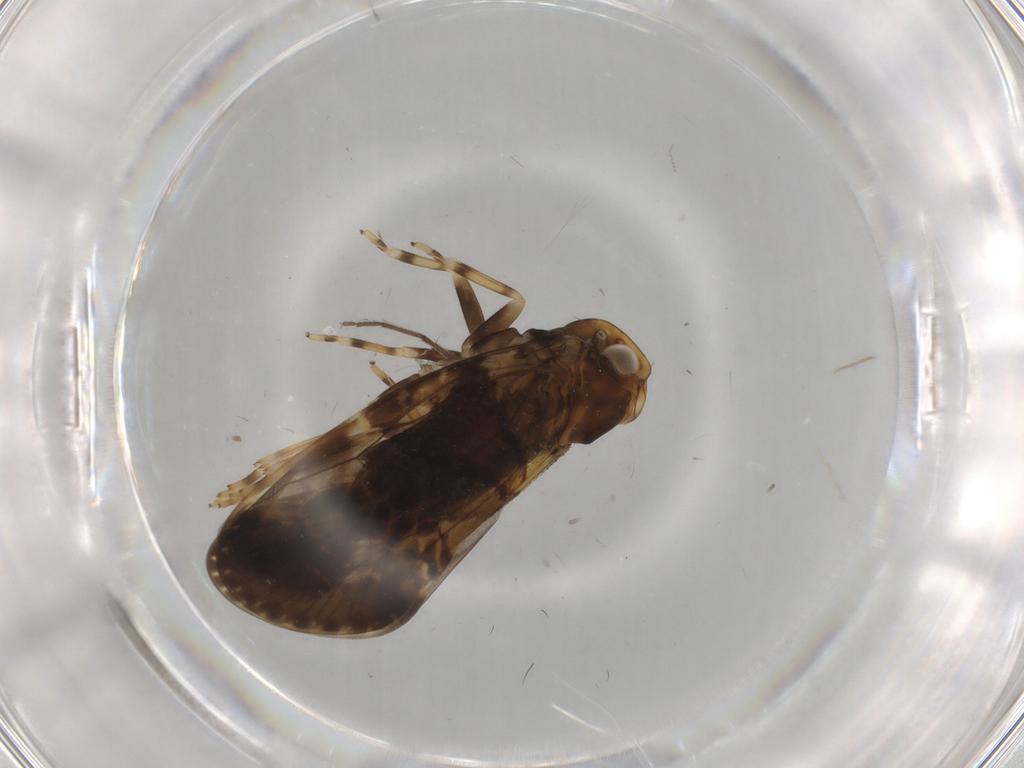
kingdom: Animalia
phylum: Arthropoda
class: Insecta
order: Hemiptera
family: Cixiidae
